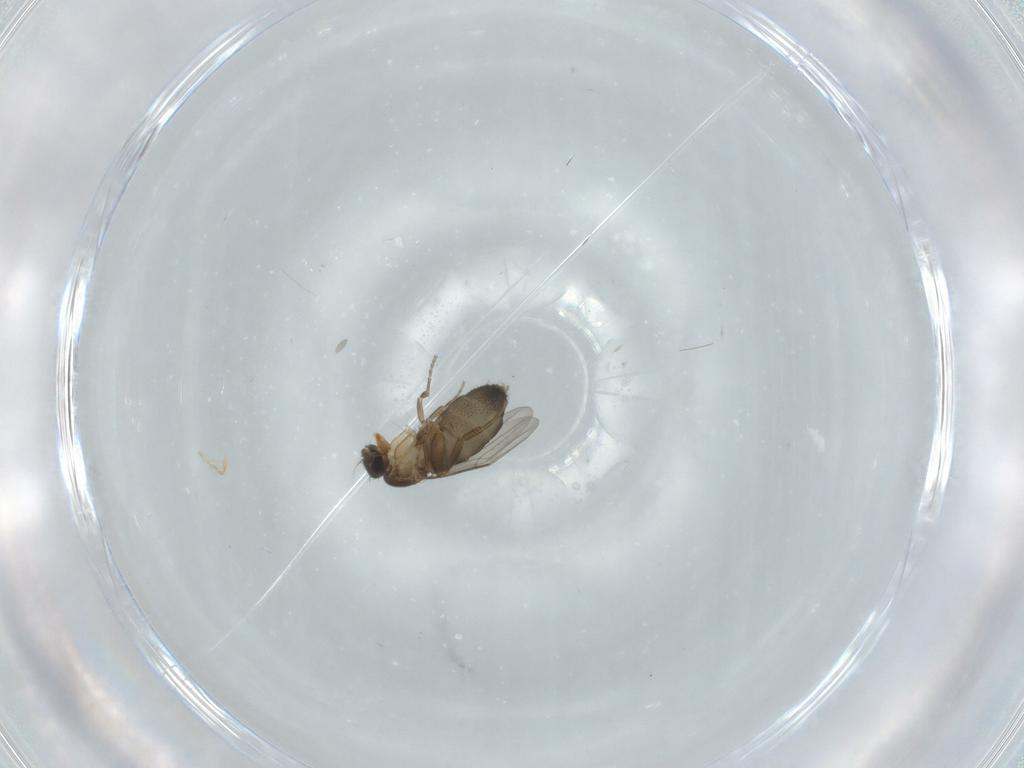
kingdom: Animalia
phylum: Arthropoda
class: Insecta
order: Diptera
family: Phoridae
